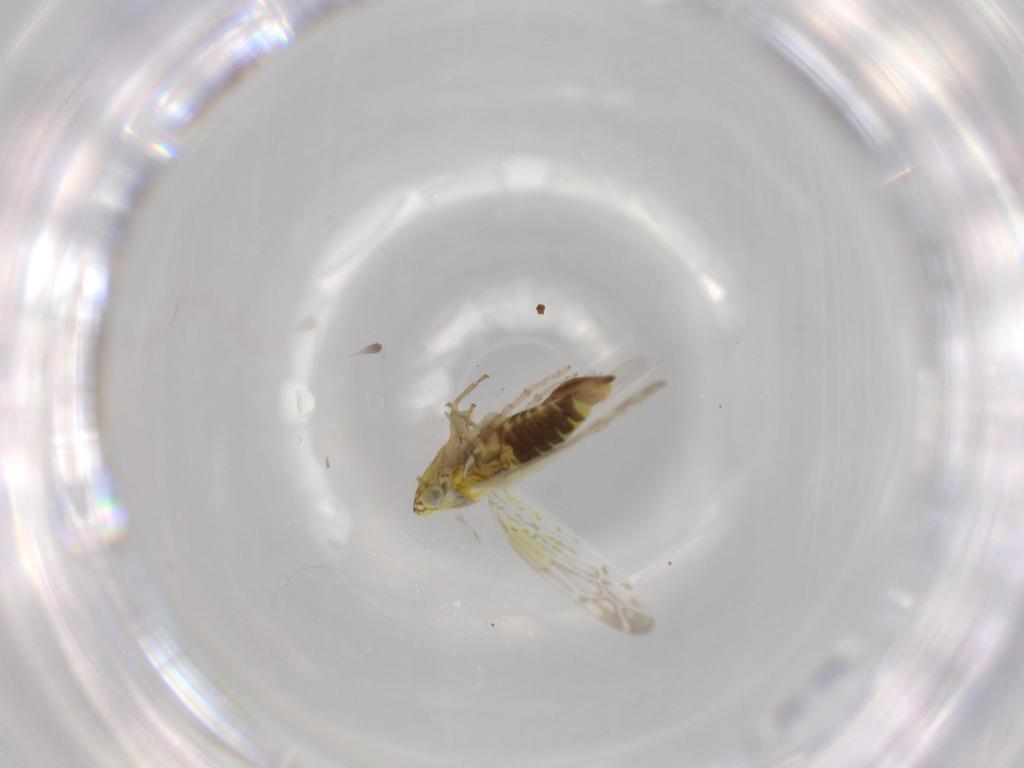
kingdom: Animalia
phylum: Arthropoda
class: Insecta
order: Hemiptera
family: Cicadellidae
